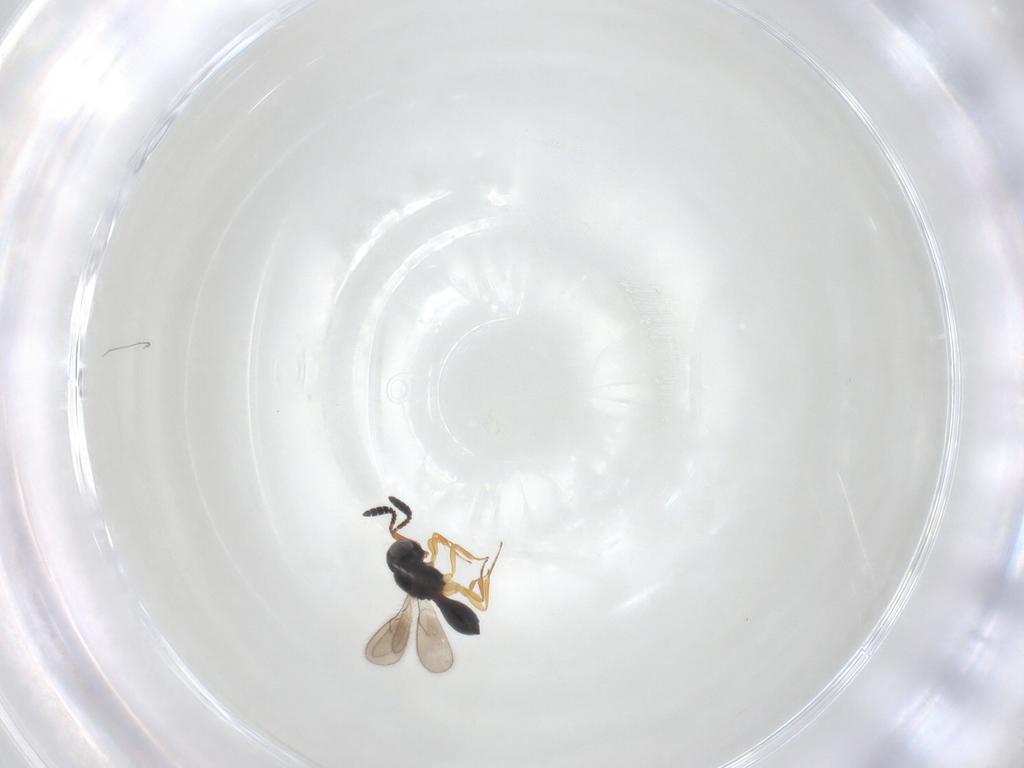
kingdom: Animalia
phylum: Arthropoda
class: Insecta
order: Hymenoptera
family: Scelionidae
